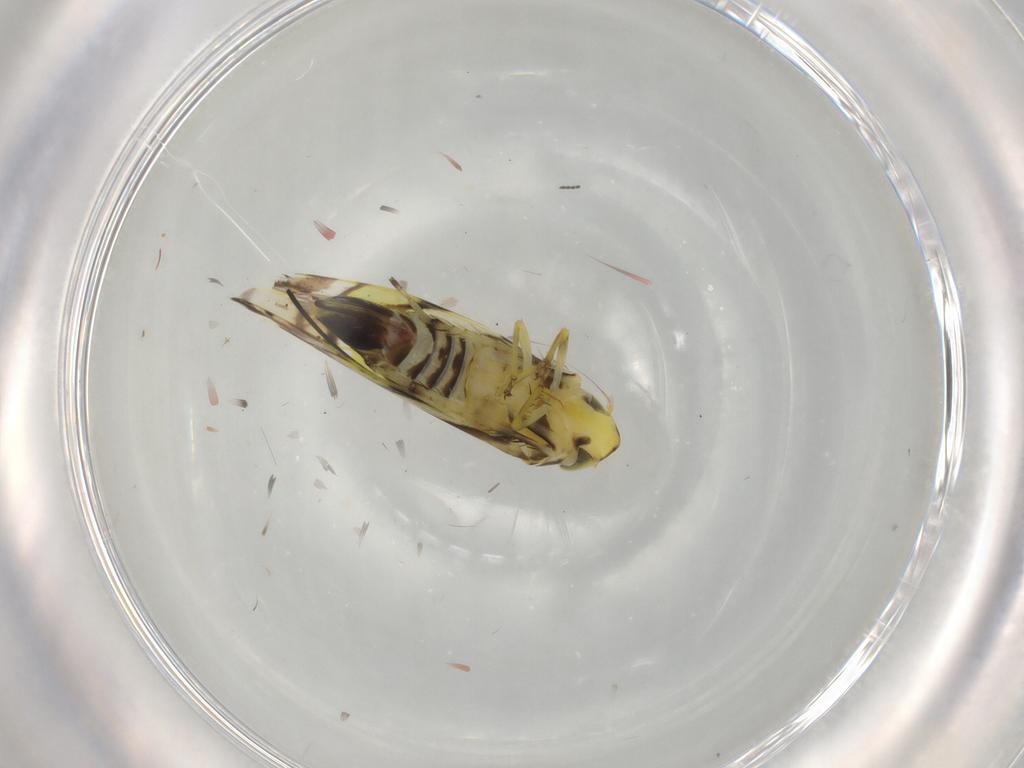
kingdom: Animalia
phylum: Arthropoda
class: Insecta
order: Hemiptera
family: Cicadellidae
